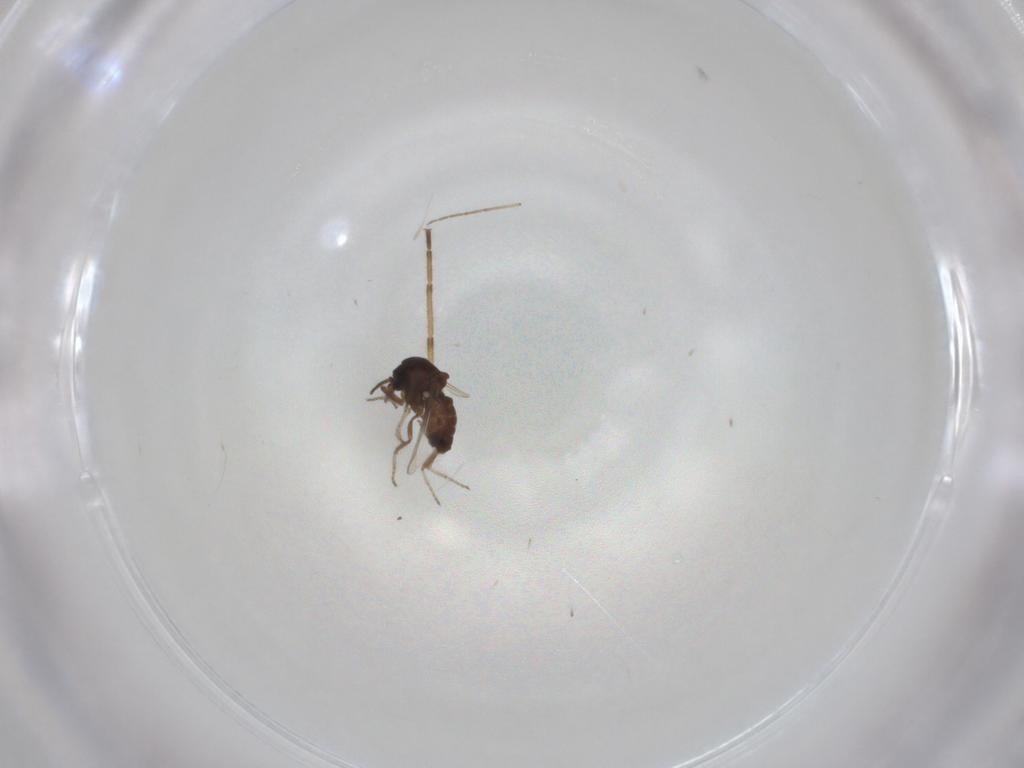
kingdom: Animalia
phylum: Arthropoda
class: Insecta
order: Diptera
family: Ceratopogonidae
